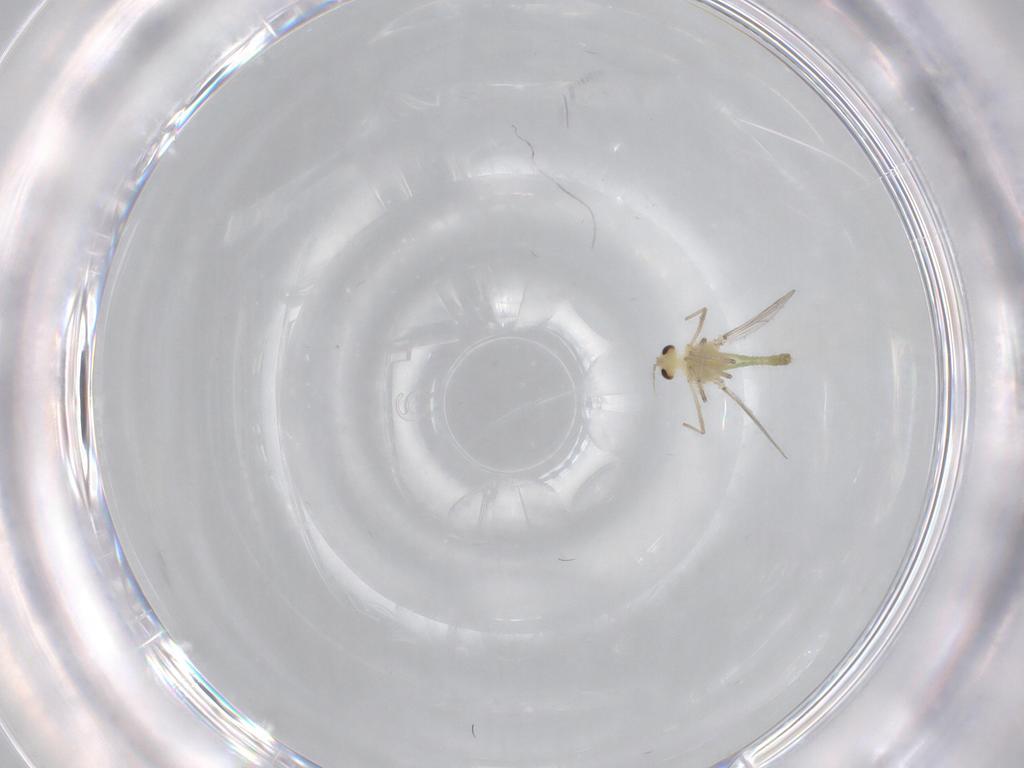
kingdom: Animalia
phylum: Arthropoda
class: Insecta
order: Diptera
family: Chironomidae
